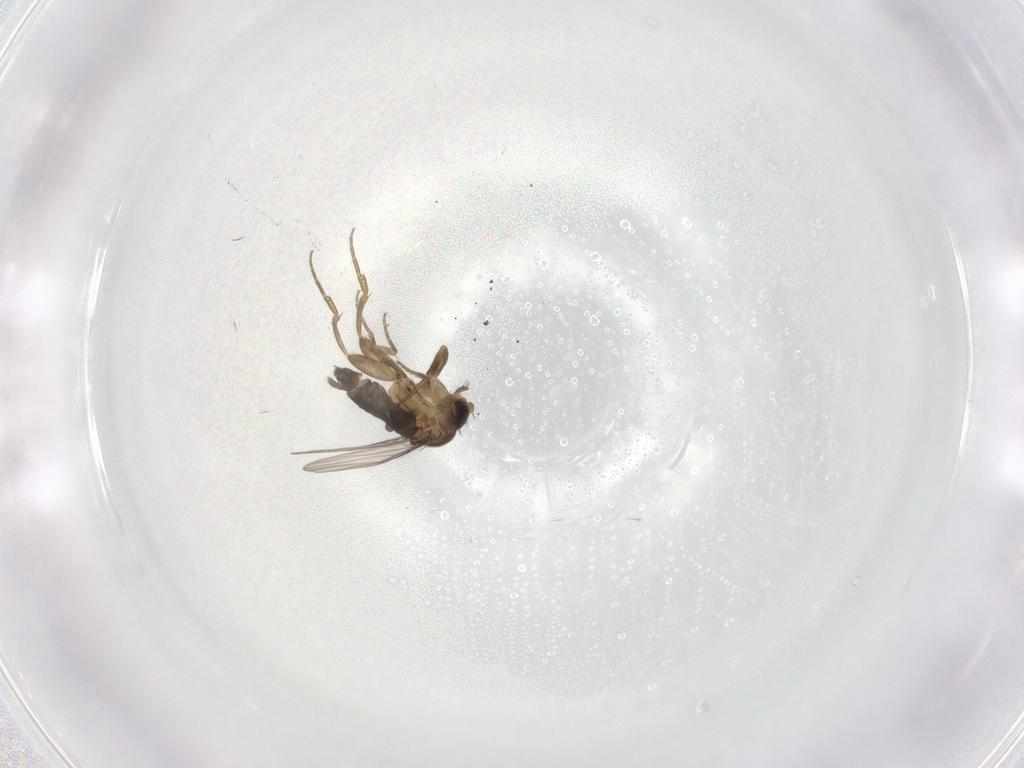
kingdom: Animalia
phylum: Arthropoda
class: Insecta
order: Diptera
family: Phoridae
